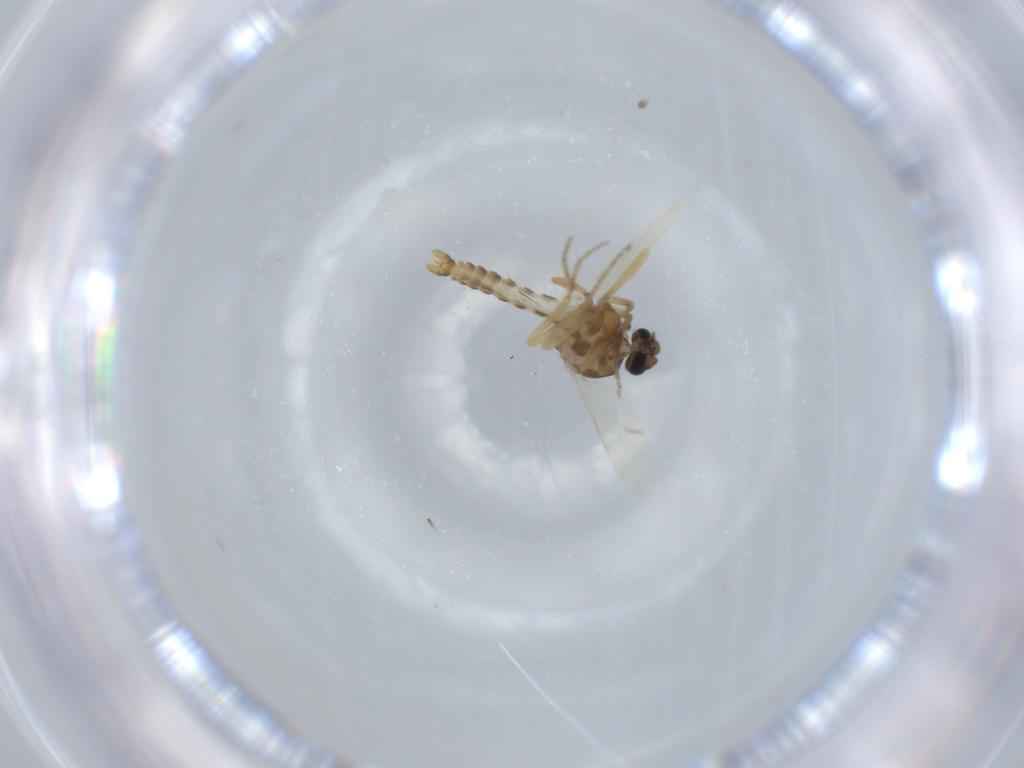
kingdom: Animalia
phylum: Arthropoda
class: Insecta
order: Diptera
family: Ceratopogonidae
